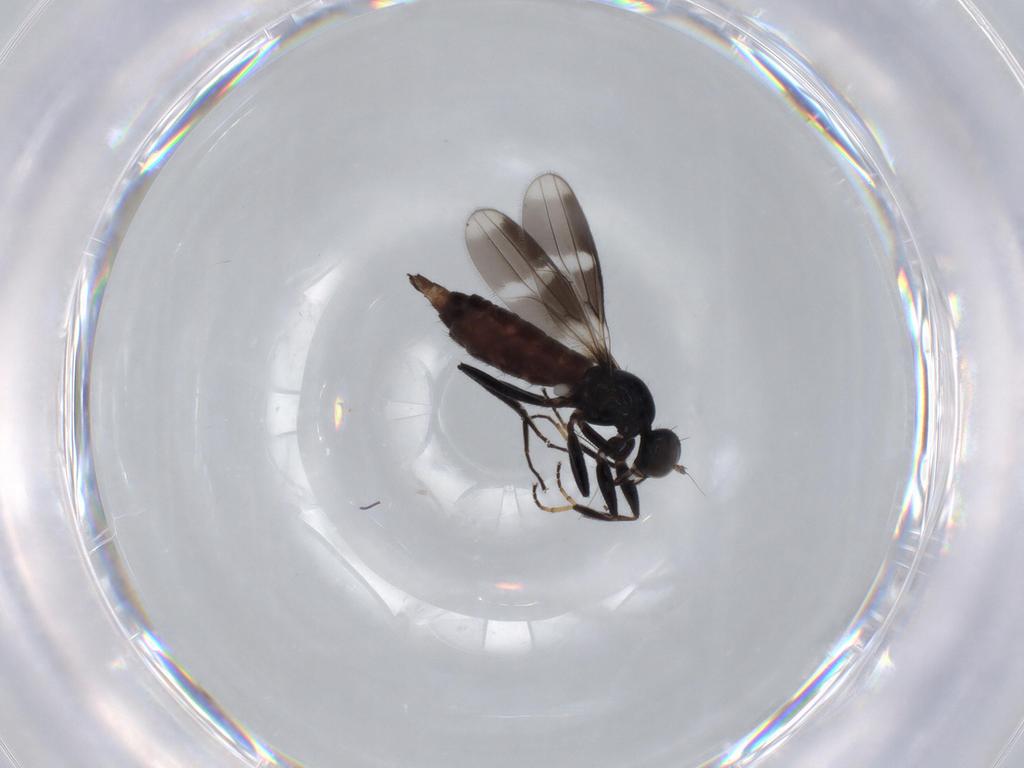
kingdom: Animalia
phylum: Arthropoda
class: Insecta
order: Diptera
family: Hybotidae
